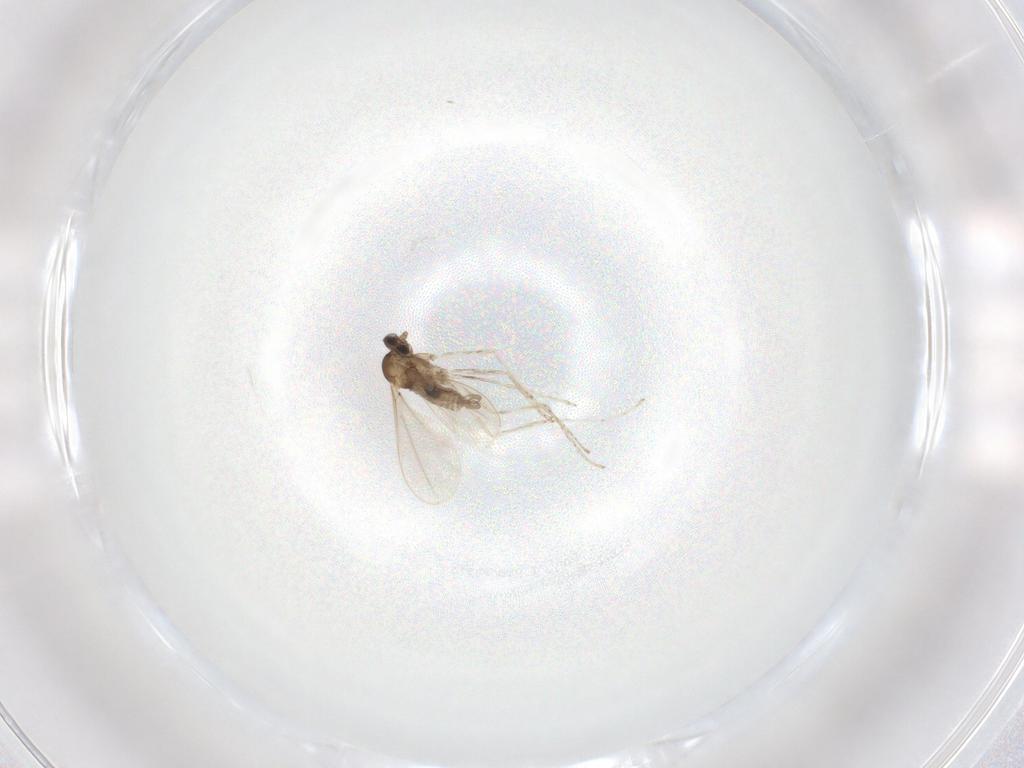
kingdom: Animalia
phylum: Arthropoda
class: Insecta
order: Diptera
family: Cecidomyiidae
